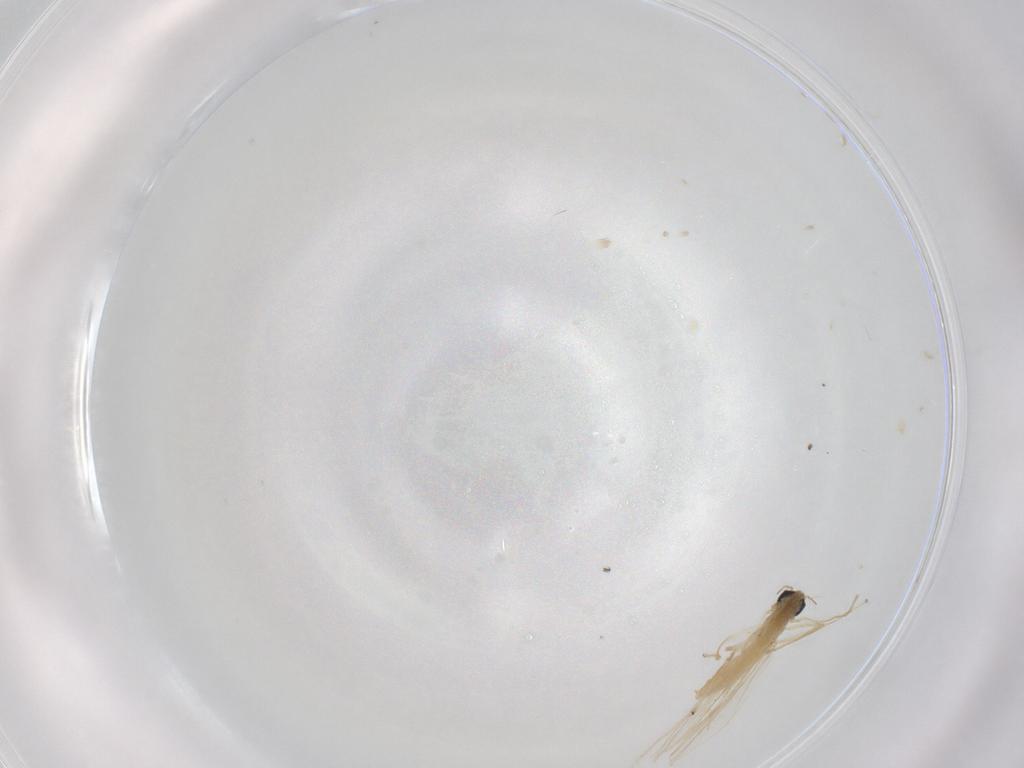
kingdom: Animalia
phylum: Arthropoda
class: Insecta
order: Diptera
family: Chironomidae
